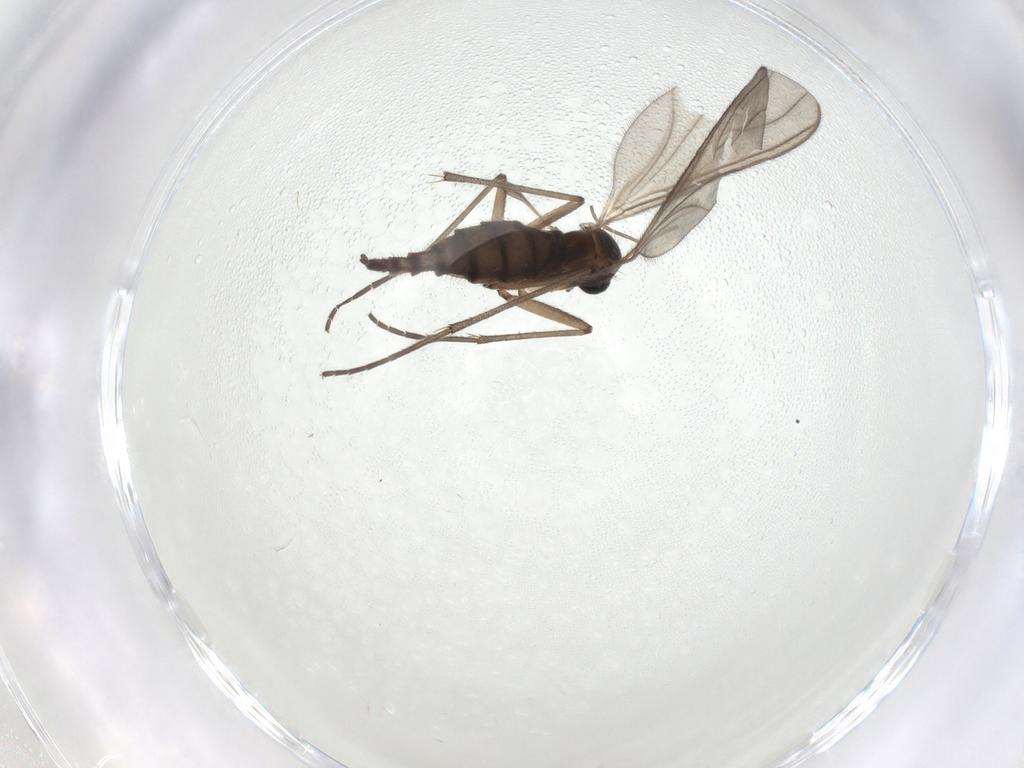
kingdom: Animalia
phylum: Arthropoda
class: Insecta
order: Diptera
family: Sciaridae
